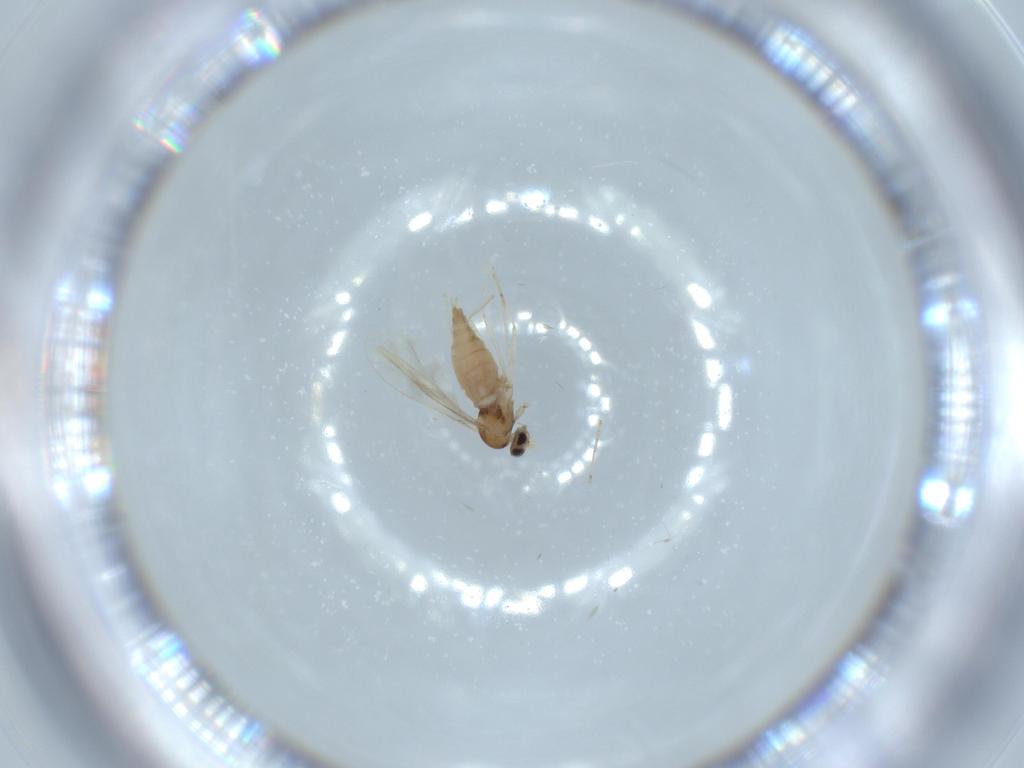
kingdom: Animalia
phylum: Arthropoda
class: Insecta
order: Diptera
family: Cecidomyiidae
